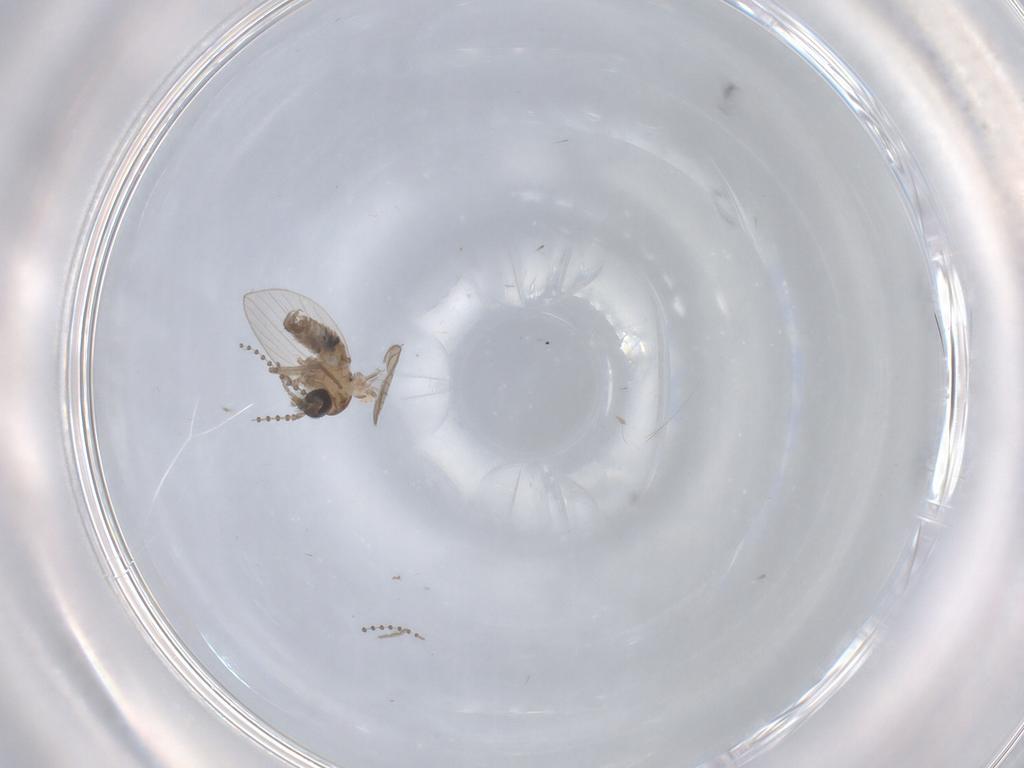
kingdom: Animalia
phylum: Arthropoda
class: Insecta
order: Diptera
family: Psychodidae
